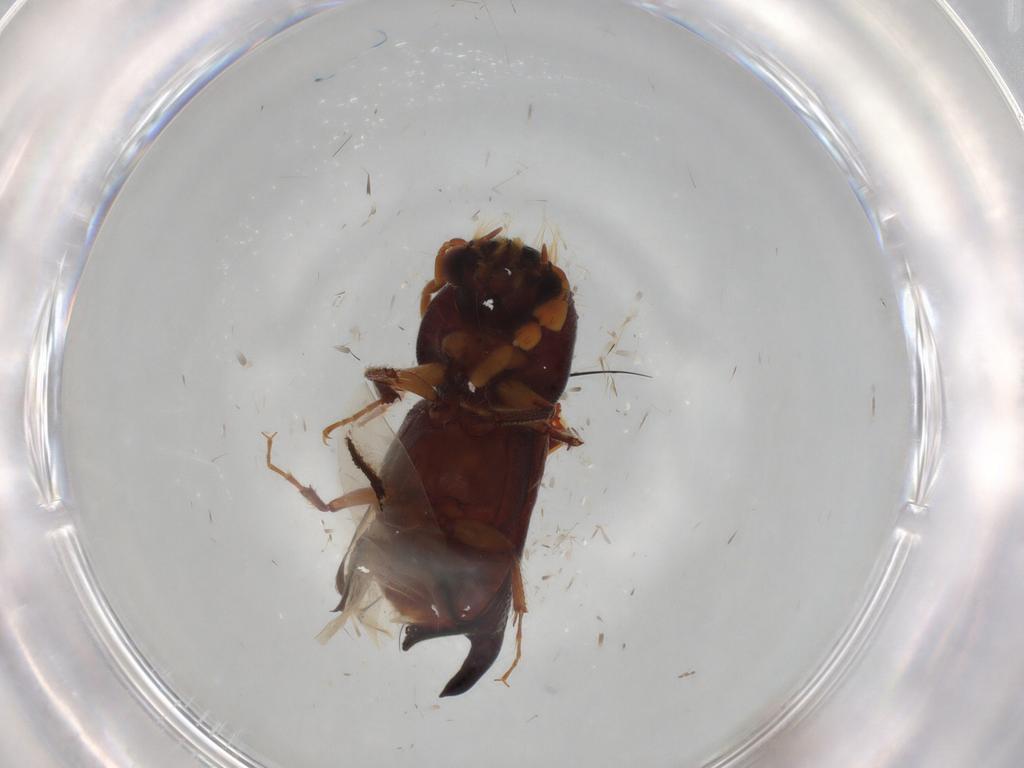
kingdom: Animalia
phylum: Arthropoda
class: Insecta
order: Coleoptera
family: Bostrichidae
